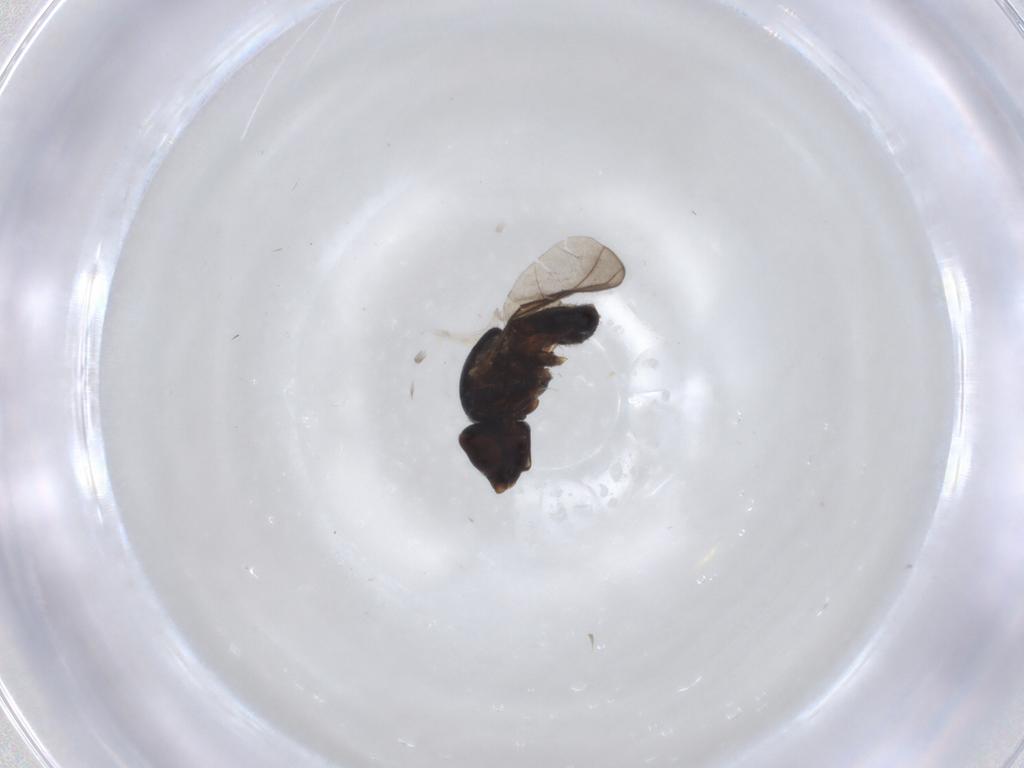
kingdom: Animalia
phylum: Arthropoda
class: Insecta
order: Diptera
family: Chloropidae
